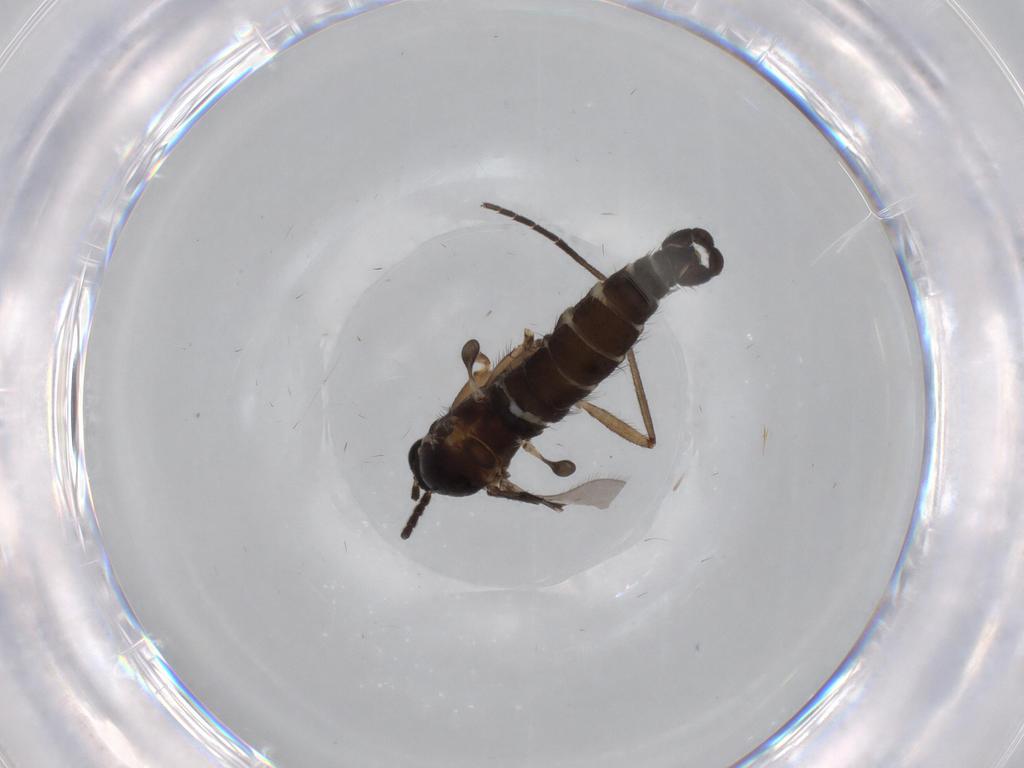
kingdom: Animalia
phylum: Arthropoda
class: Insecta
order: Diptera
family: Sciaridae
